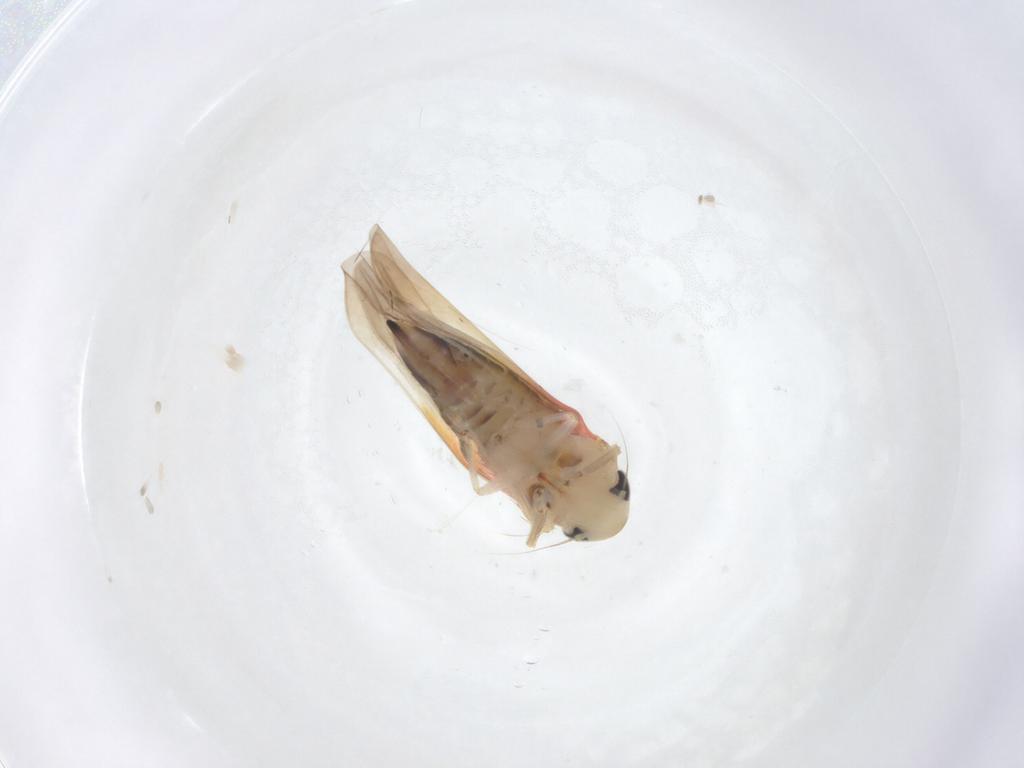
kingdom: Animalia
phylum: Arthropoda
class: Insecta
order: Hemiptera
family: Cicadellidae
